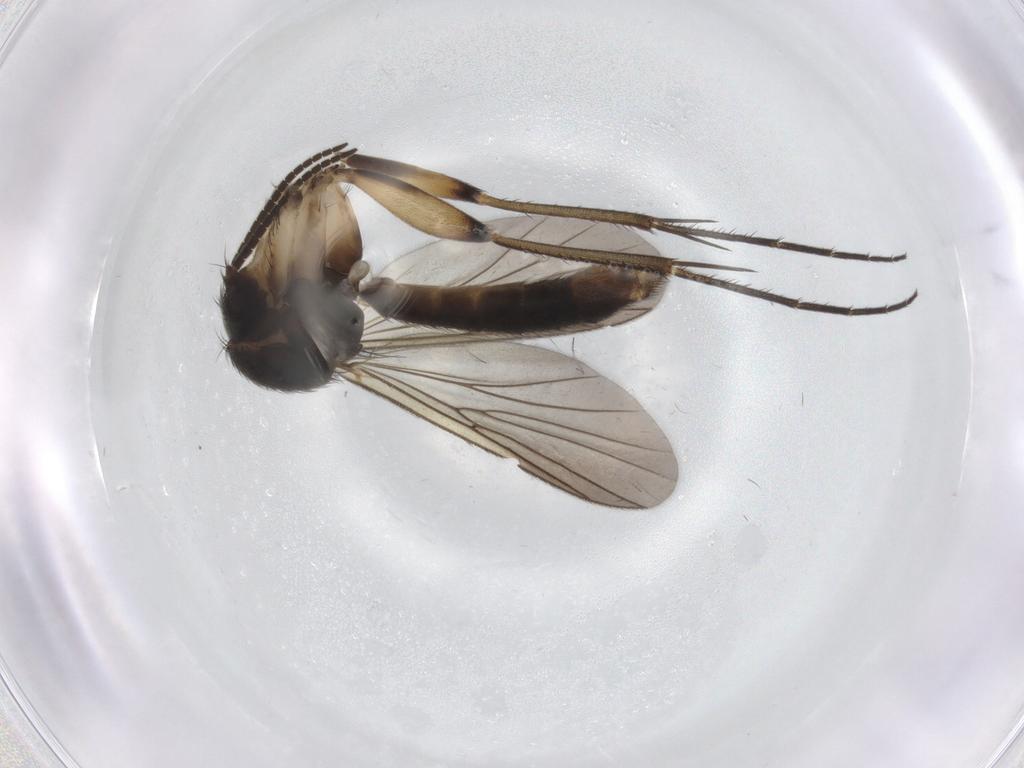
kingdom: Animalia
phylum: Arthropoda
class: Insecta
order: Diptera
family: Mycetophilidae
